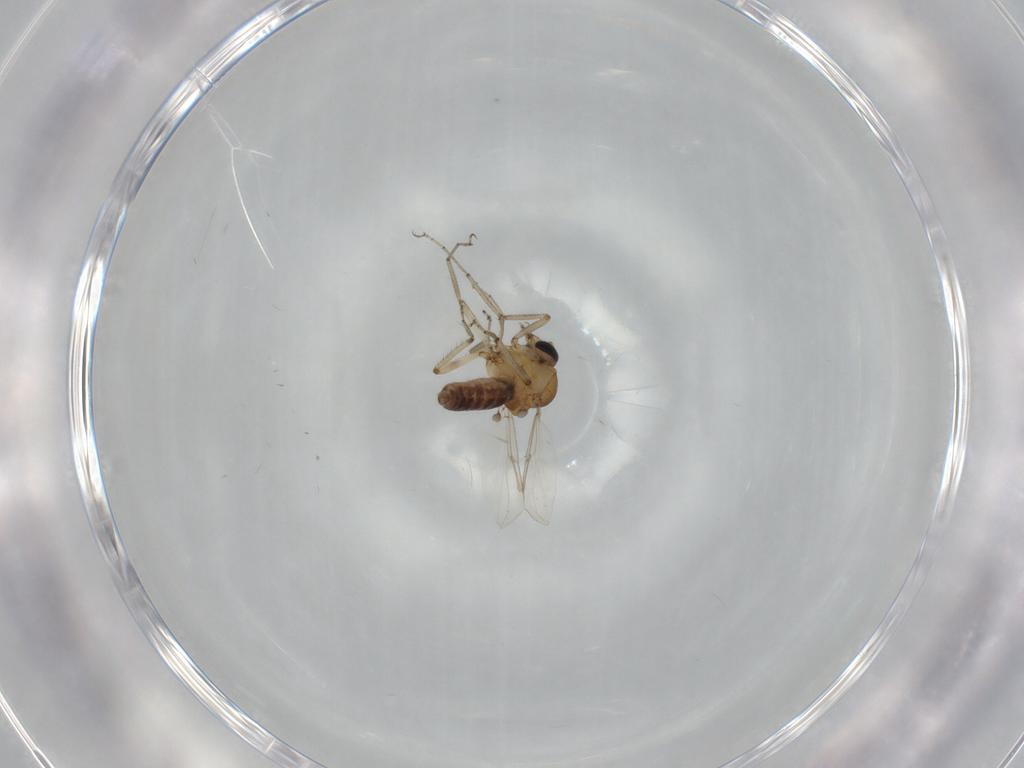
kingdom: Animalia
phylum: Arthropoda
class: Insecta
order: Diptera
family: Ceratopogonidae
